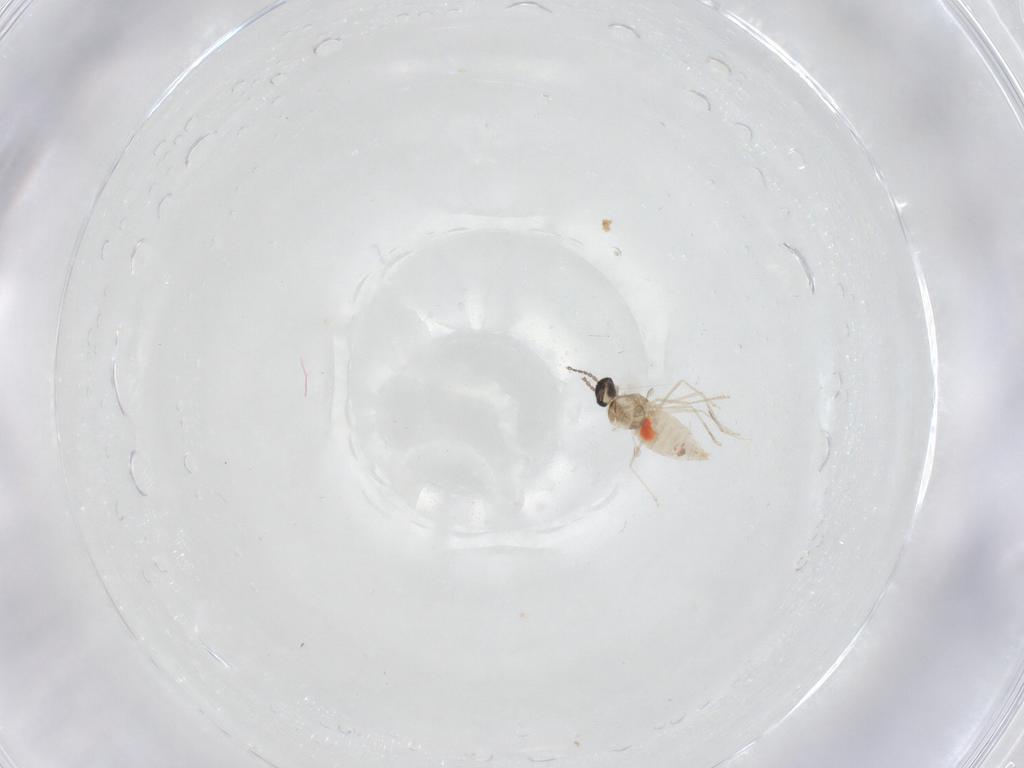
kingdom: Animalia
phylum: Arthropoda
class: Insecta
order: Diptera
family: Cecidomyiidae
